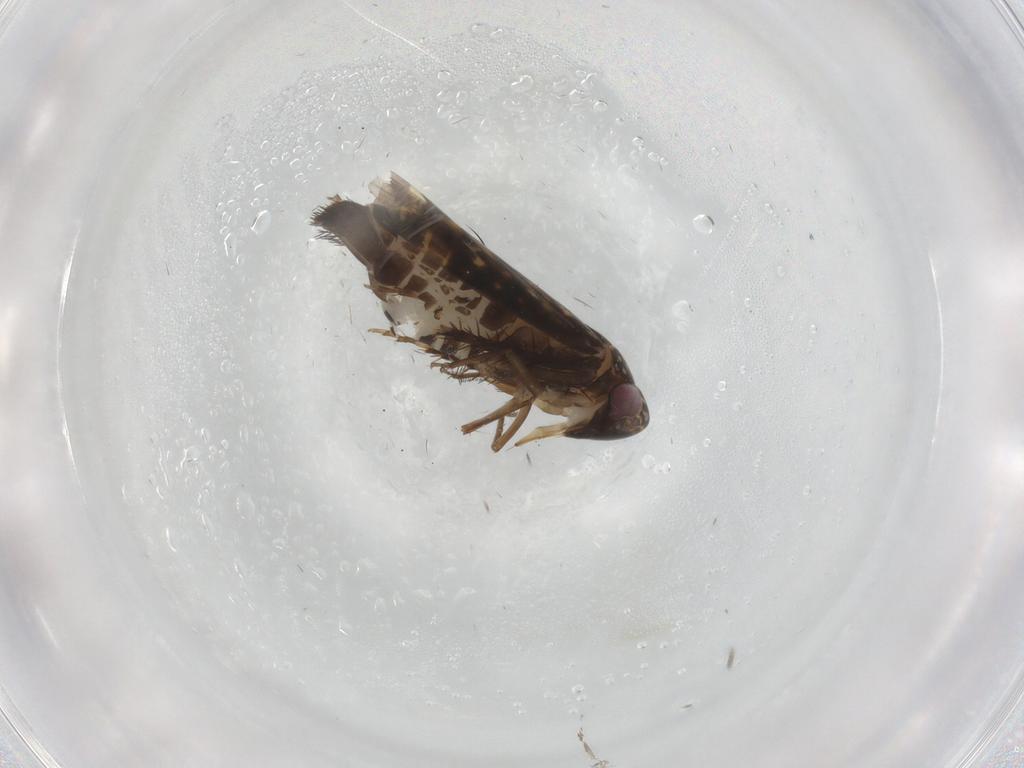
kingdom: Animalia
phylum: Arthropoda
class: Insecta
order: Hemiptera
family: Cicadellidae
